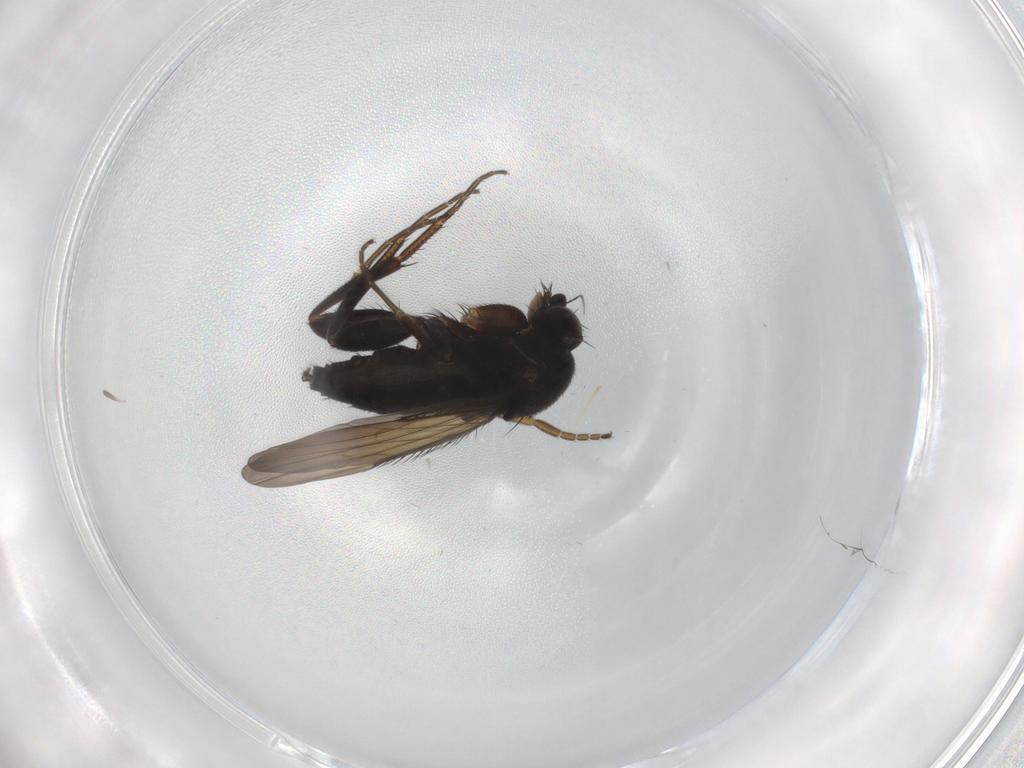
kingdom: Animalia
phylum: Arthropoda
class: Insecta
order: Diptera
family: Phoridae
